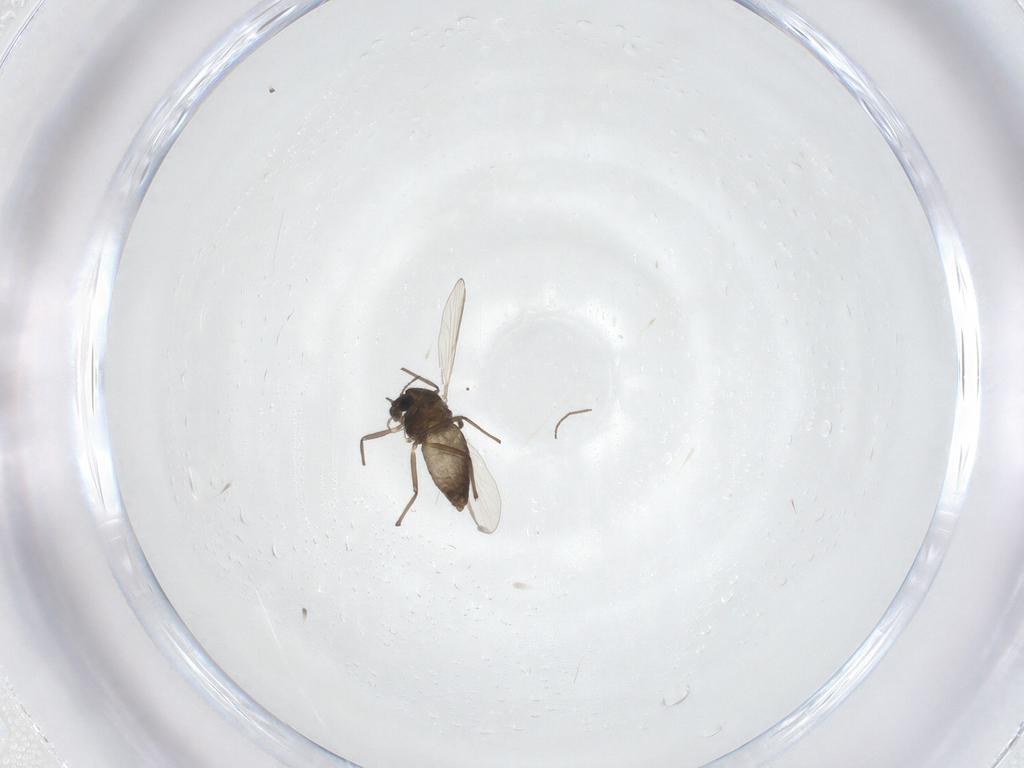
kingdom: Animalia
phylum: Arthropoda
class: Insecta
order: Diptera
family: Chironomidae
